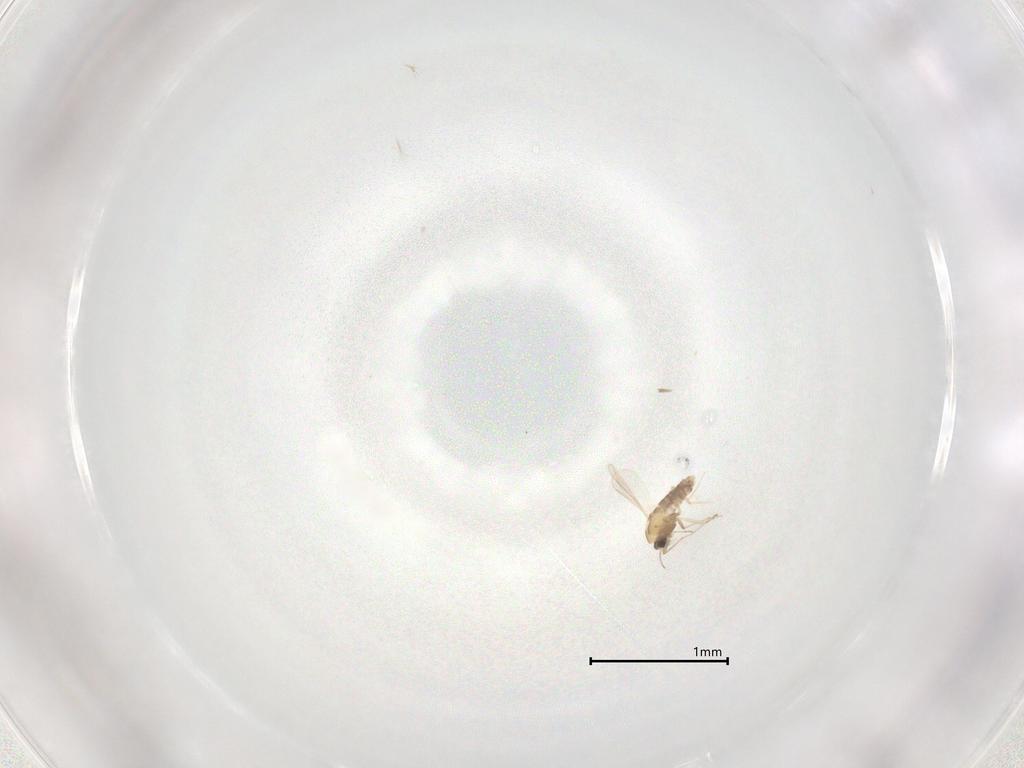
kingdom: Animalia
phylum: Arthropoda
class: Insecta
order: Diptera
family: Chironomidae
